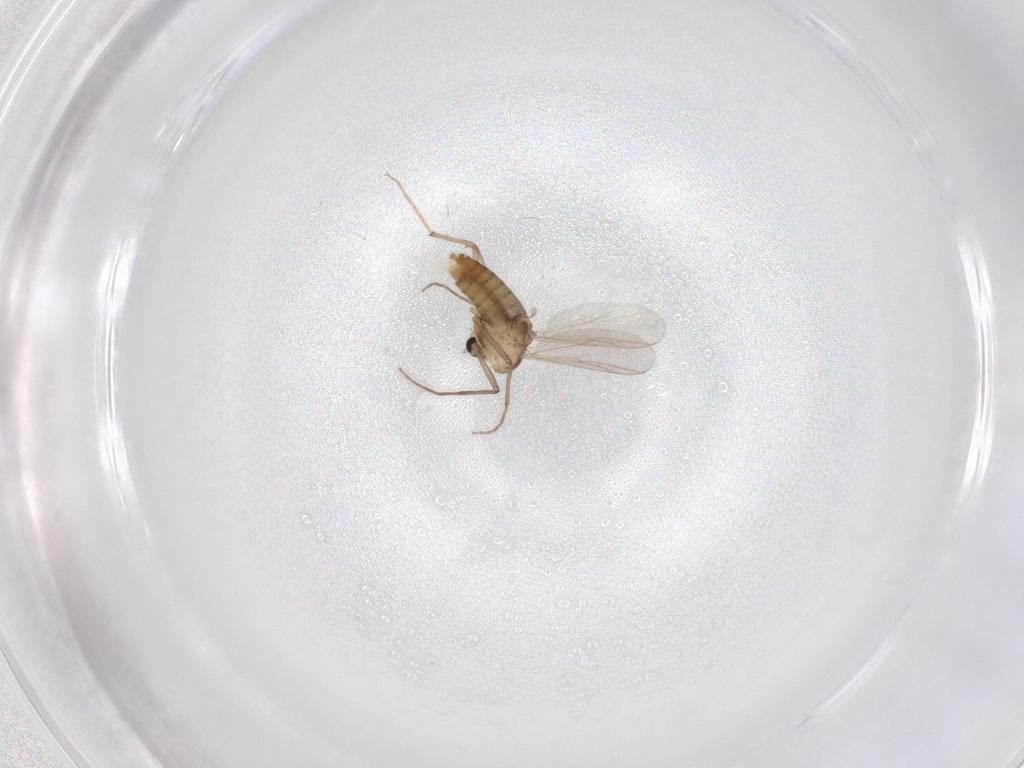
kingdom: Animalia
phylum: Arthropoda
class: Insecta
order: Diptera
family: Chironomidae
